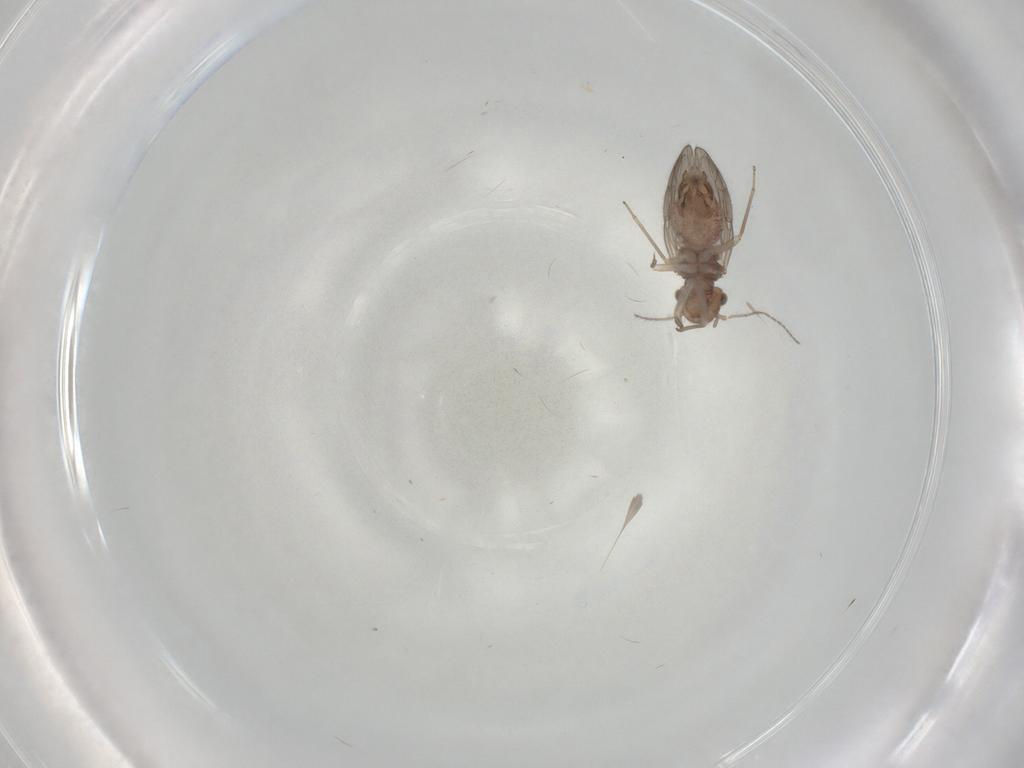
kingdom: Animalia
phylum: Arthropoda
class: Insecta
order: Psocodea
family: Ectopsocidae
